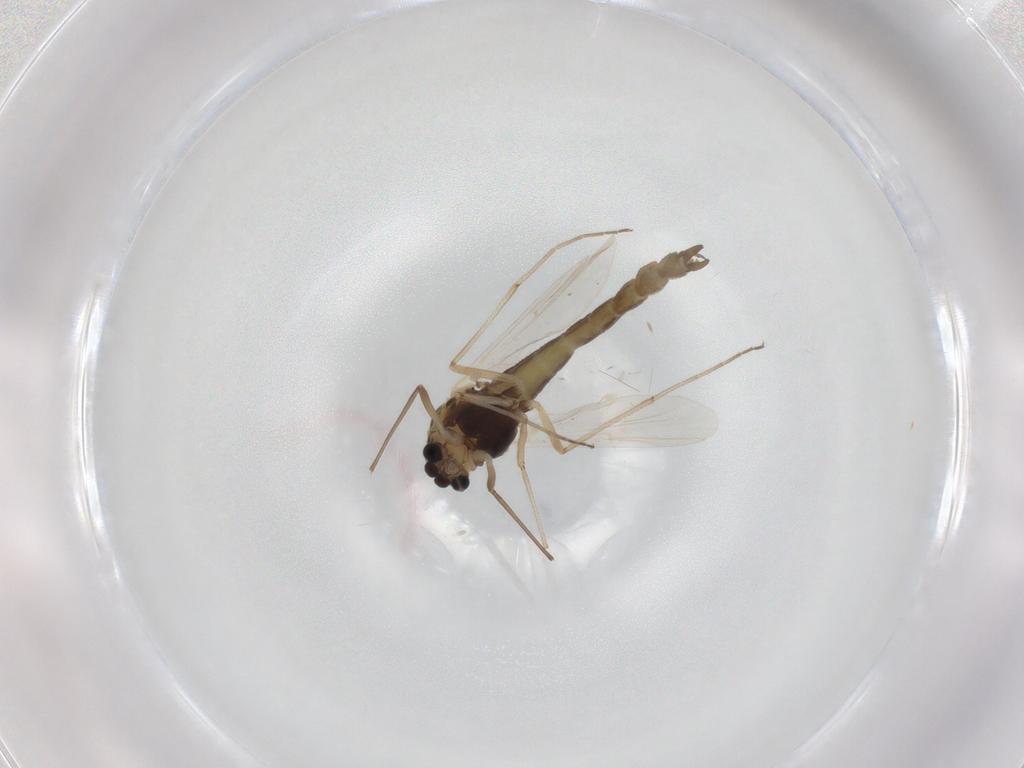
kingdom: Animalia
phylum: Arthropoda
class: Insecta
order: Diptera
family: Chironomidae
